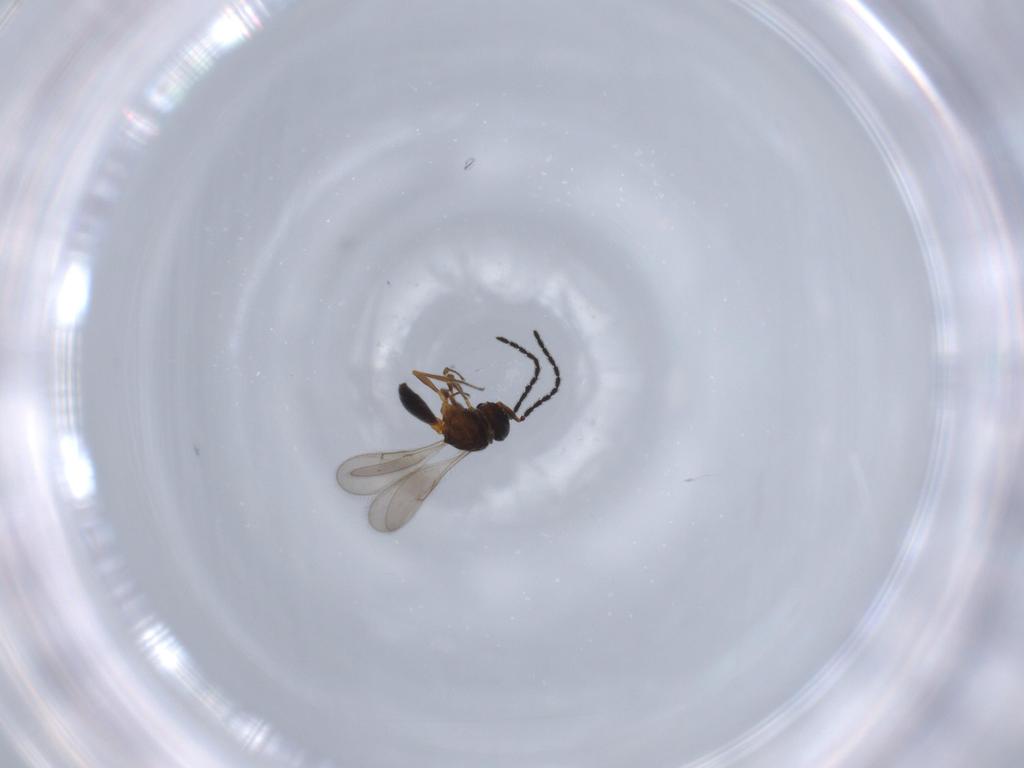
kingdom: Animalia
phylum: Arthropoda
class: Insecta
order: Hymenoptera
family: Scelionidae
